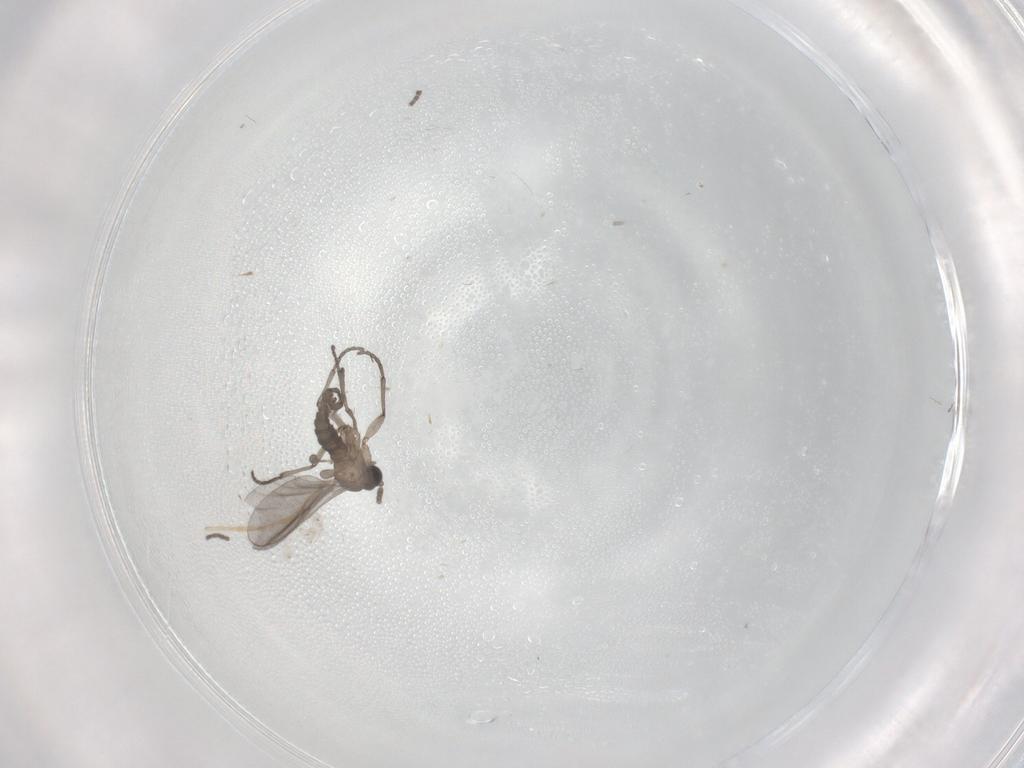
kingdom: Animalia
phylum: Arthropoda
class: Insecta
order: Diptera
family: Sciaridae
